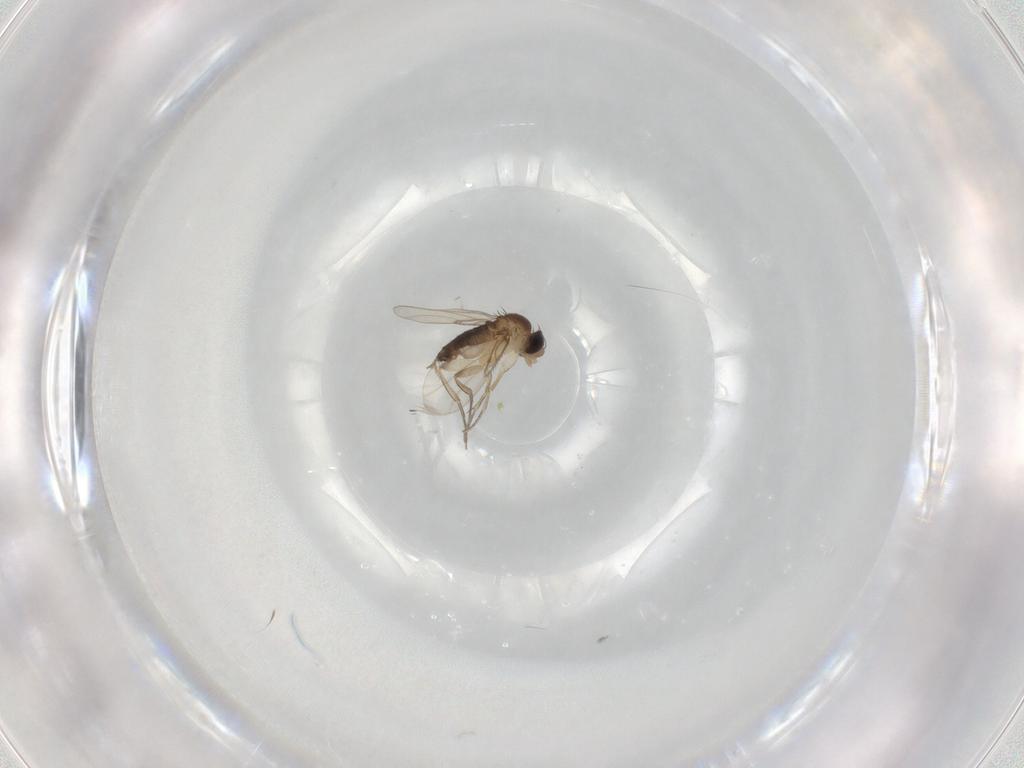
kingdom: Animalia
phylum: Arthropoda
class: Insecta
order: Diptera
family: Phoridae
